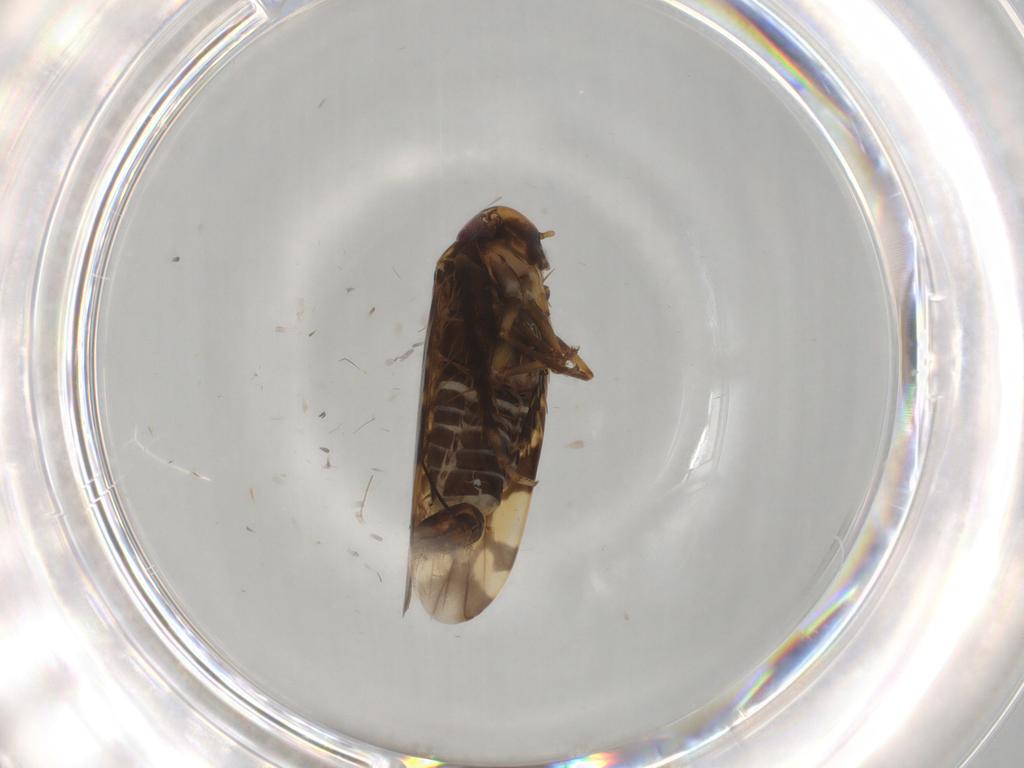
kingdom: Animalia
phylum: Arthropoda
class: Insecta
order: Hemiptera
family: Cicadellidae
